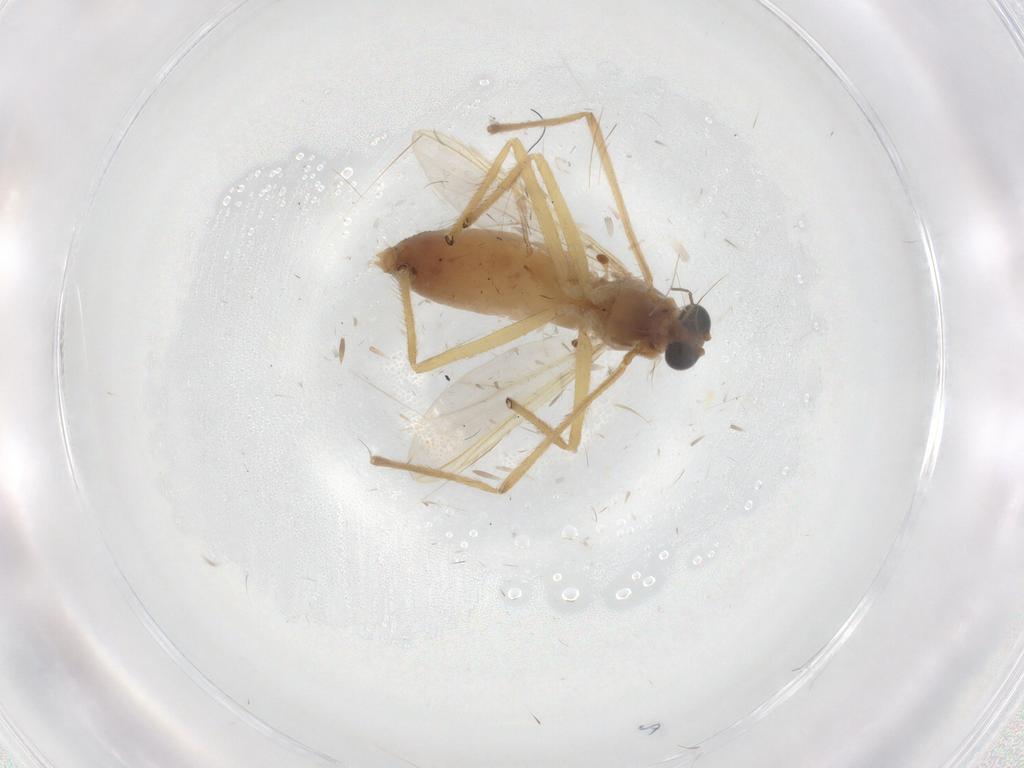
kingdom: Animalia
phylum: Arthropoda
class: Insecta
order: Diptera
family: Chironomidae
